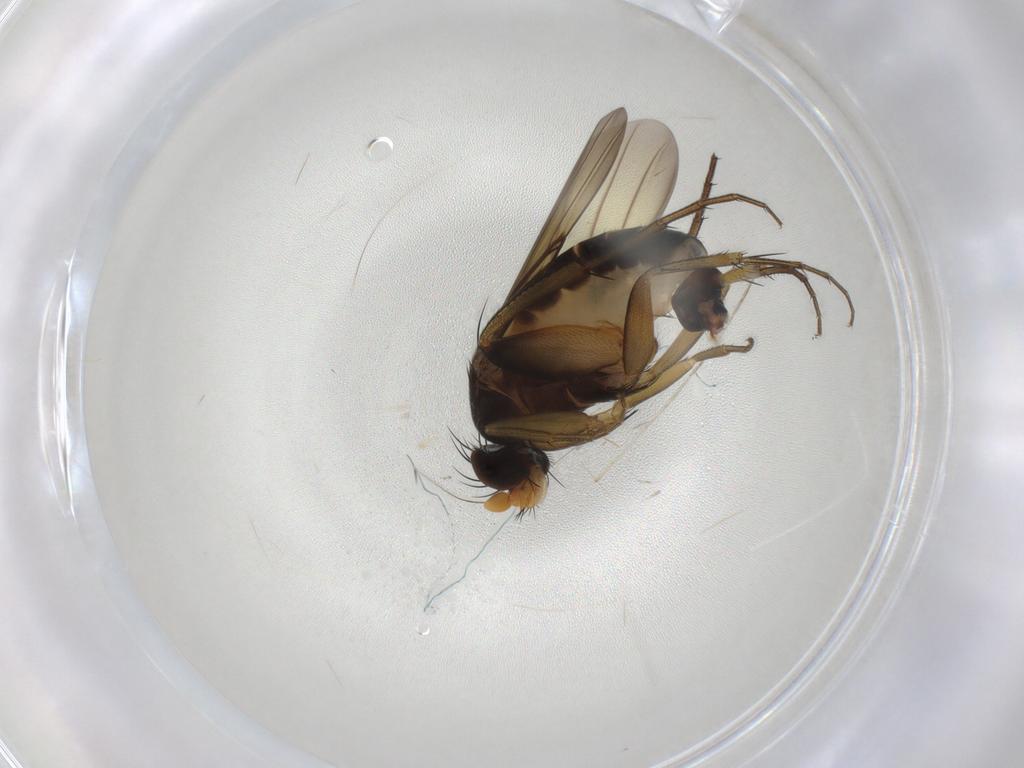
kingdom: Animalia
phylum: Arthropoda
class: Insecta
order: Diptera
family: Phoridae
